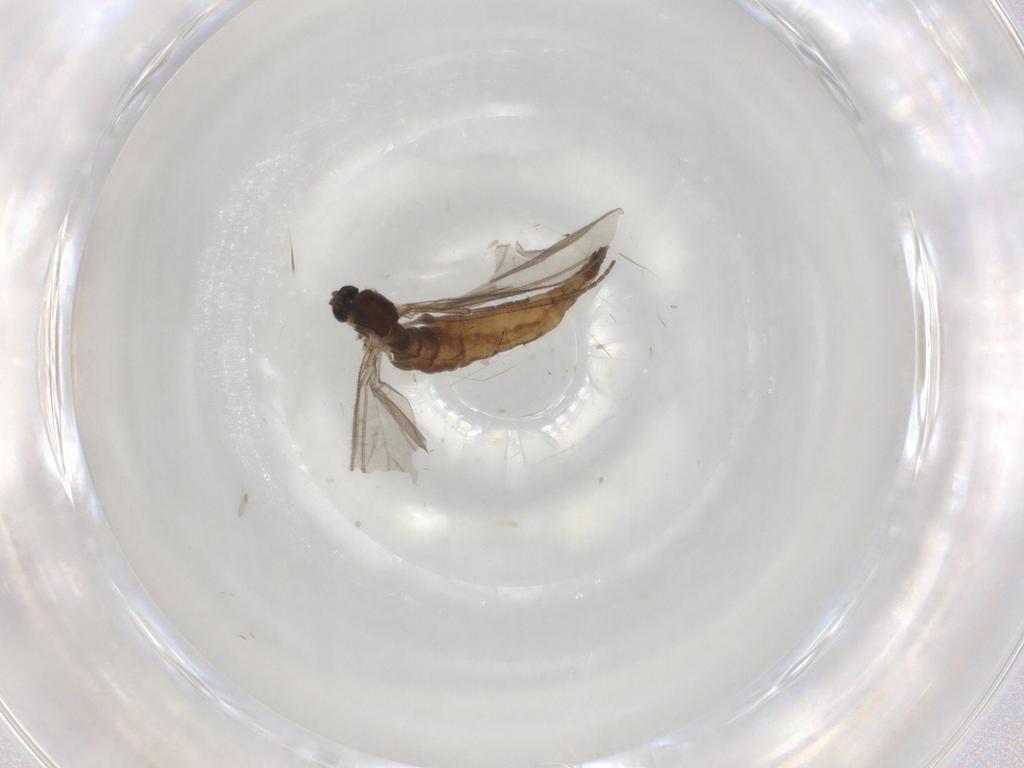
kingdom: Animalia
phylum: Arthropoda
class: Insecta
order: Diptera
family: Sciaridae
